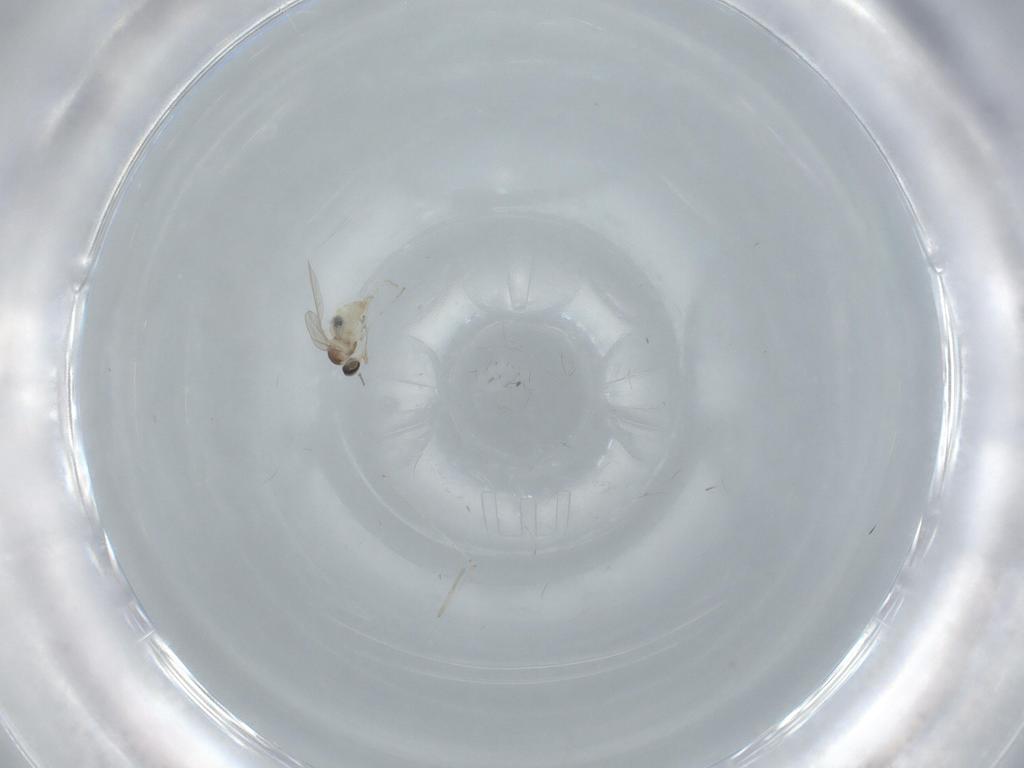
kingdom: Animalia
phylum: Arthropoda
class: Insecta
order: Diptera
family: Cecidomyiidae
